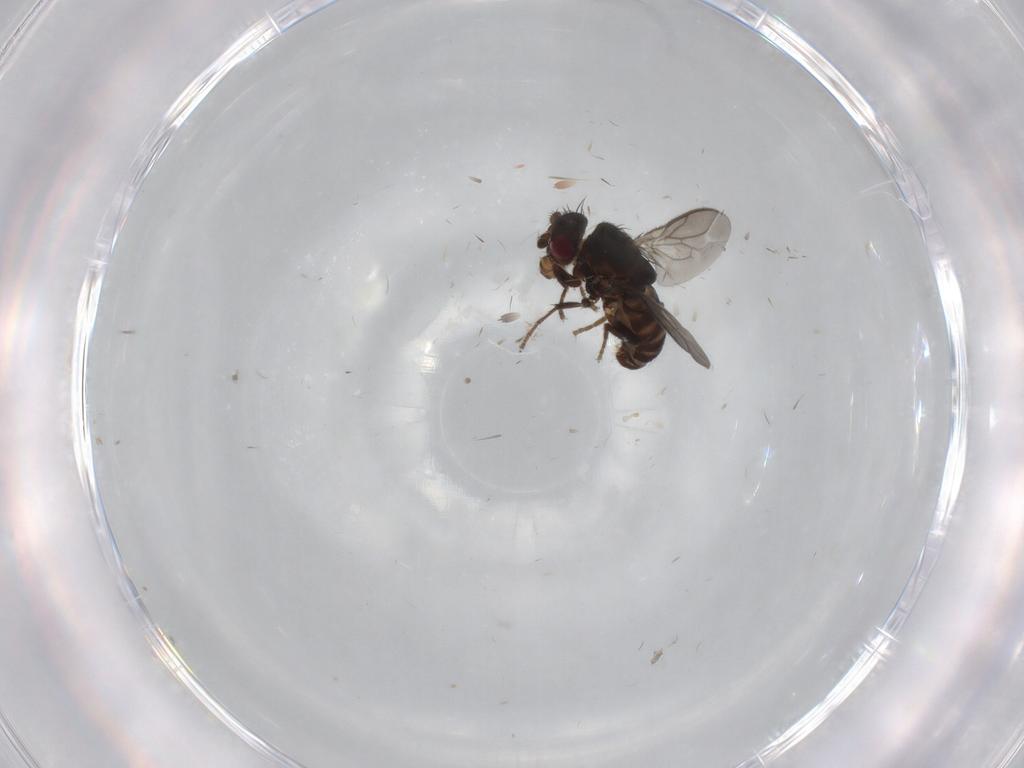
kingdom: Animalia
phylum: Arthropoda
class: Insecta
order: Diptera
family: Sphaeroceridae
